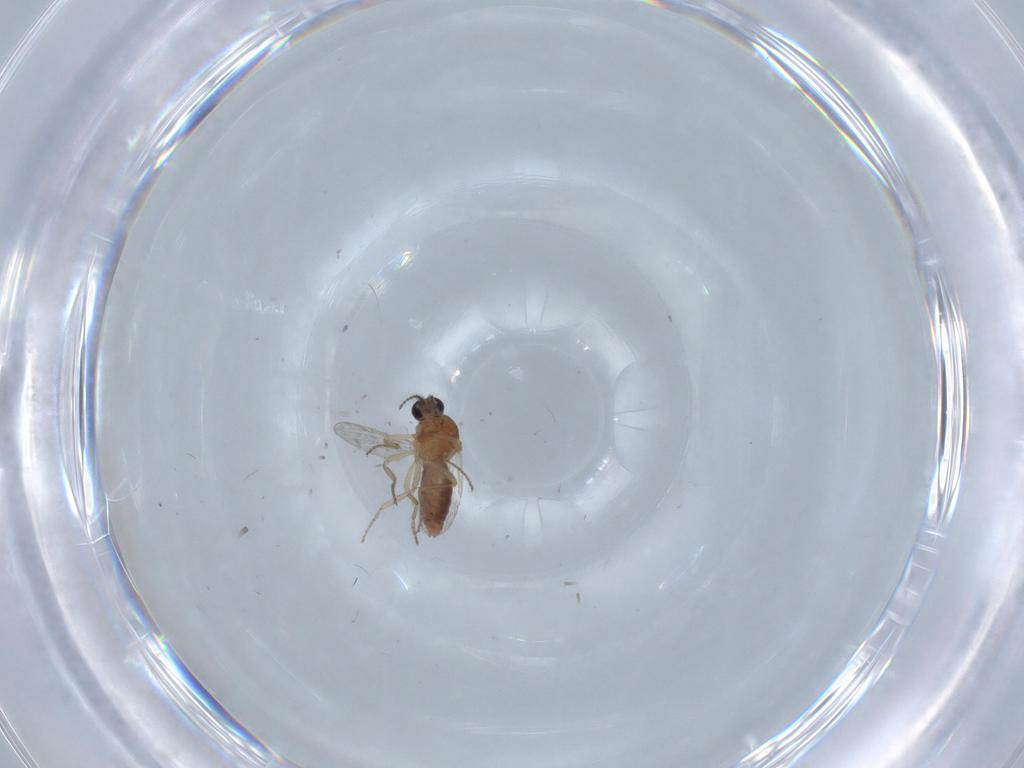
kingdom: Animalia
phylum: Arthropoda
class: Insecta
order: Diptera
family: Ceratopogonidae
